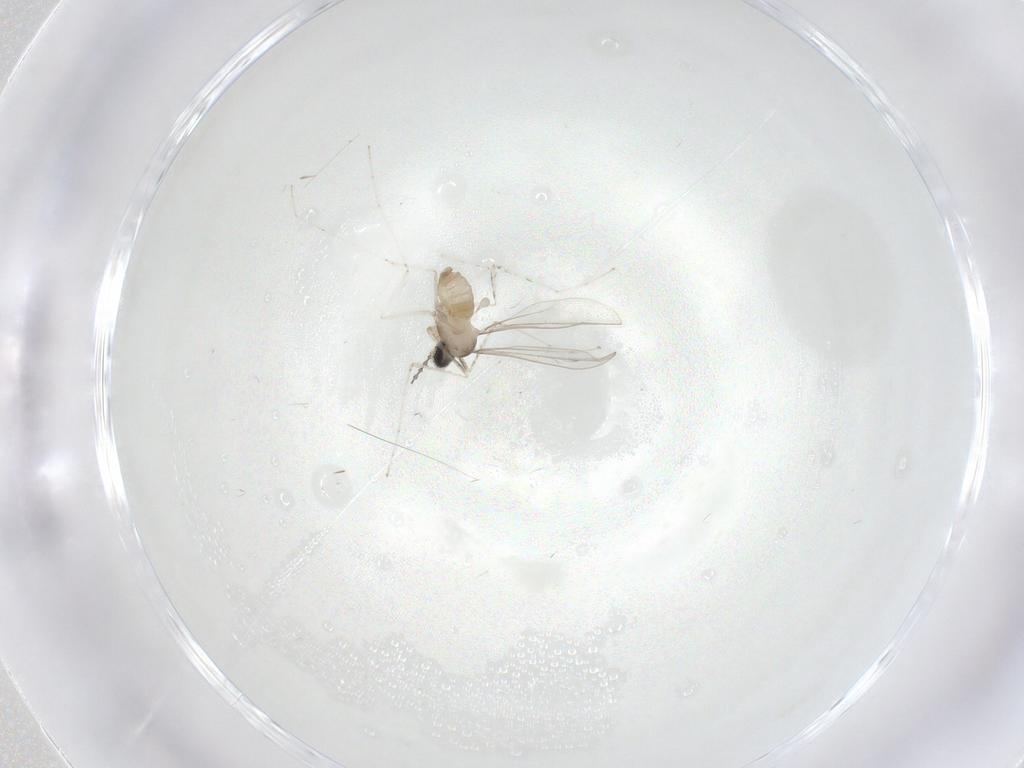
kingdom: Animalia
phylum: Arthropoda
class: Insecta
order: Diptera
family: Cecidomyiidae
